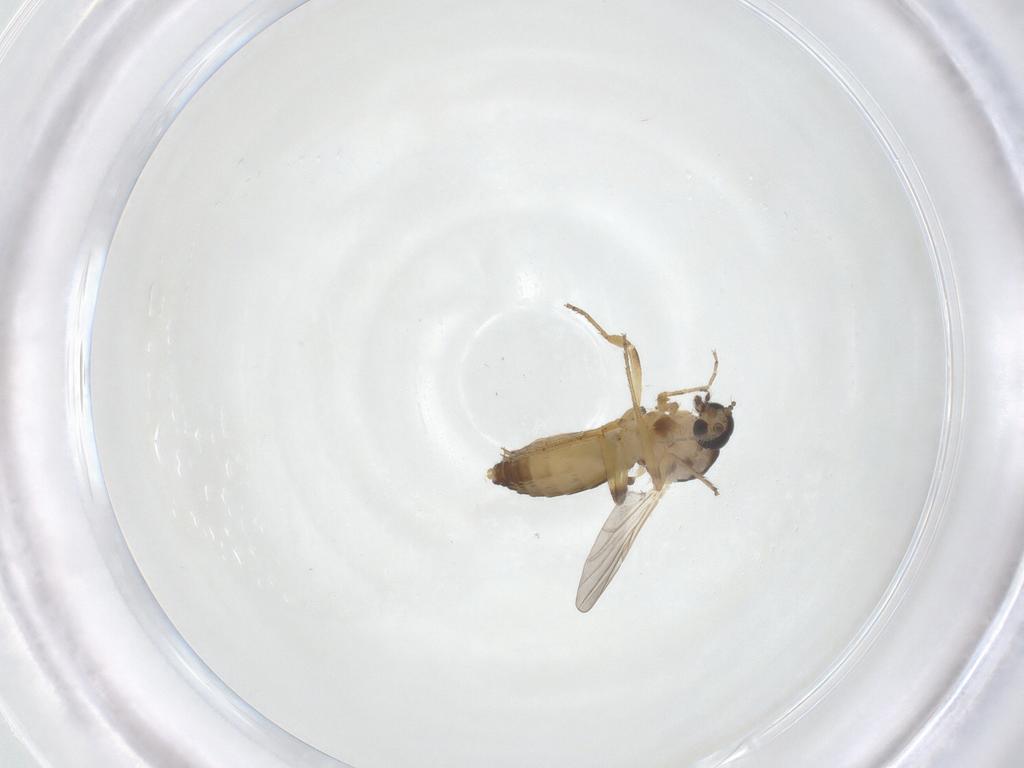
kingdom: Animalia
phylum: Arthropoda
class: Insecta
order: Diptera
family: Ceratopogonidae
